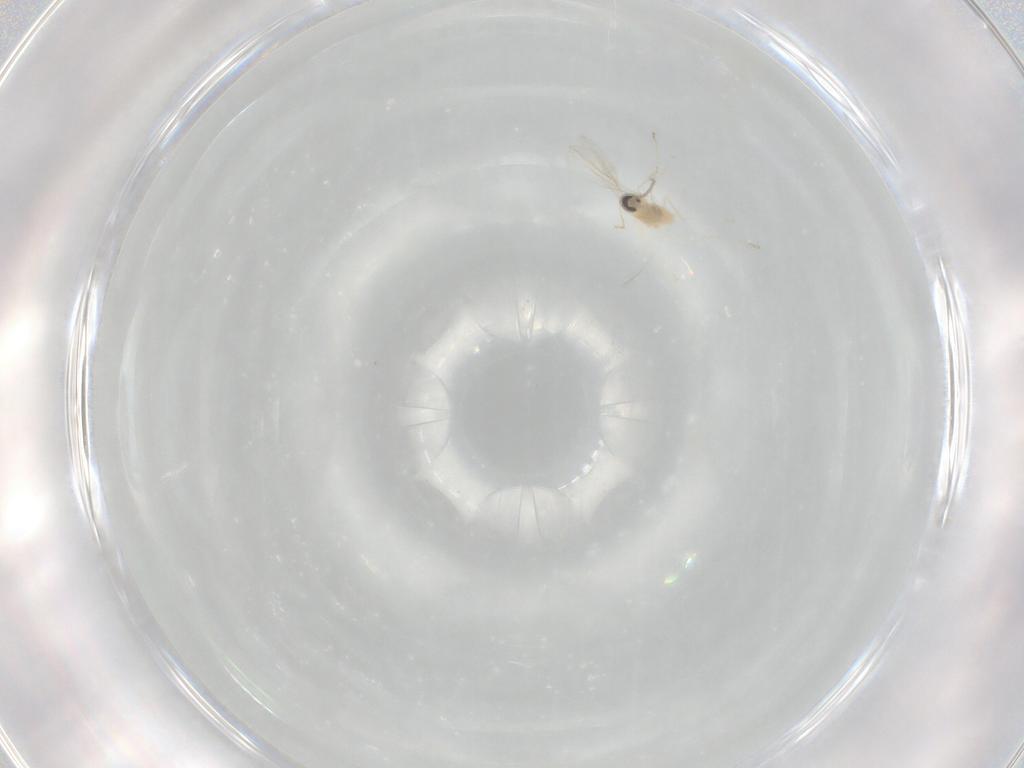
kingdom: Animalia
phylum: Arthropoda
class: Insecta
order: Diptera
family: Cecidomyiidae
